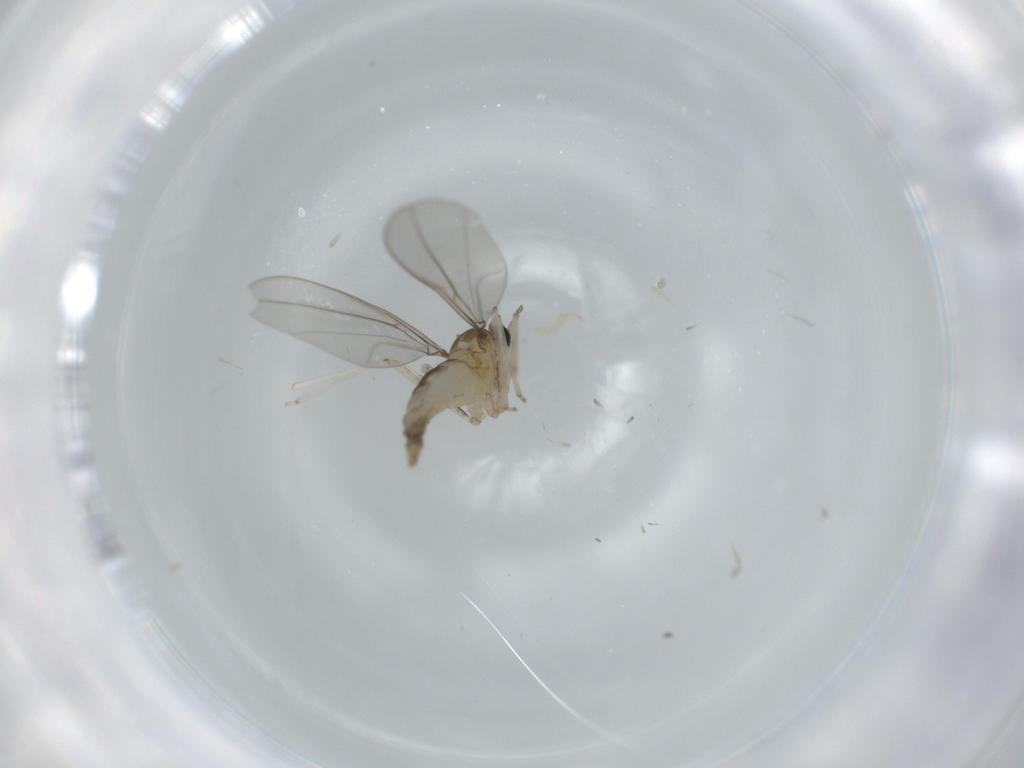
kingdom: Animalia
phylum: Arthropoda
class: Insecta
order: Diptera
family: Cecidomyiidae
